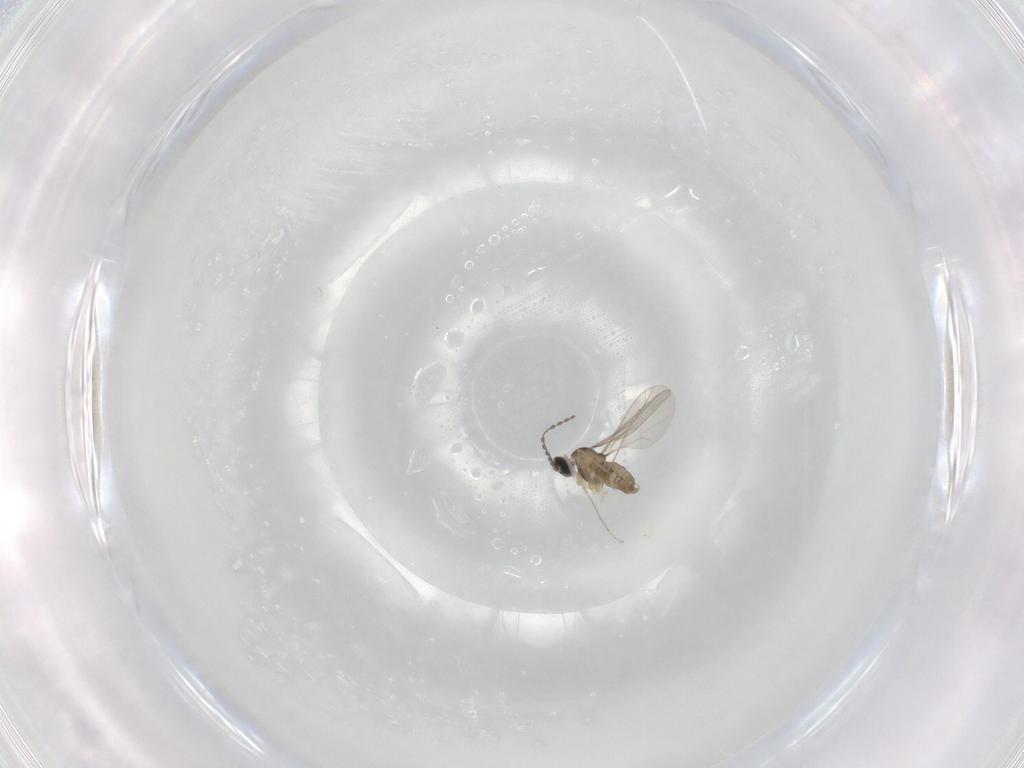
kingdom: Animalia
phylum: Arthropoda
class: Insecta
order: Diptera
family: Cecidomyiidae
